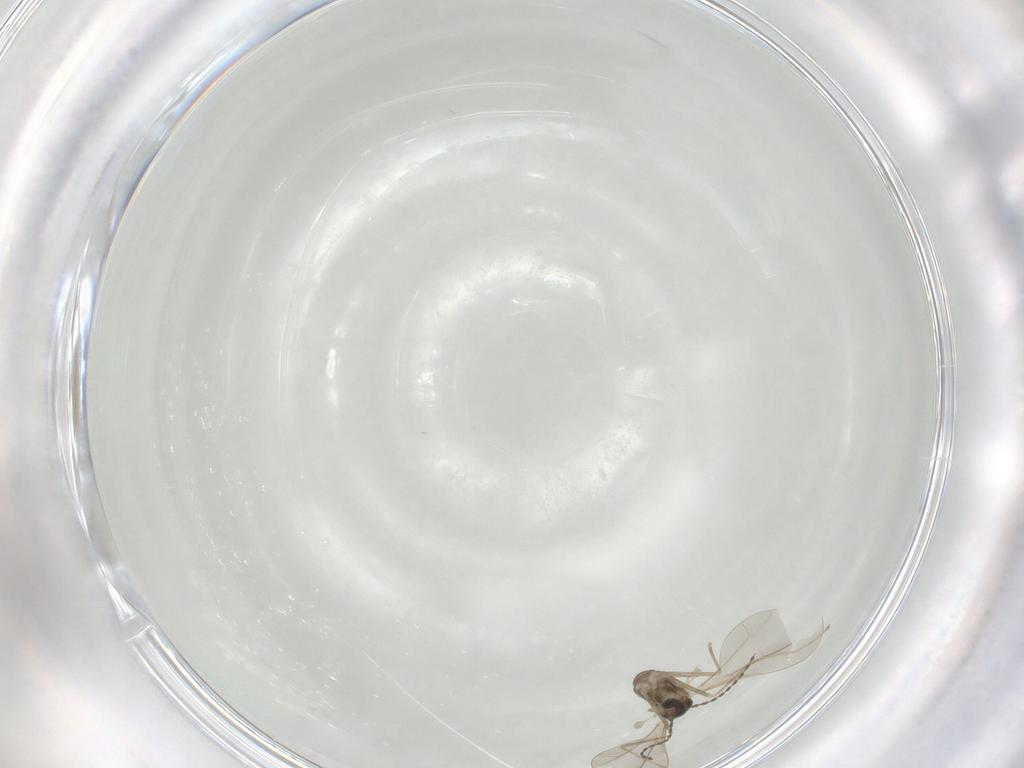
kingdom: Animalia
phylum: Arthropoda
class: Insecta
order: Diptera
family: Cecidomyiidae
